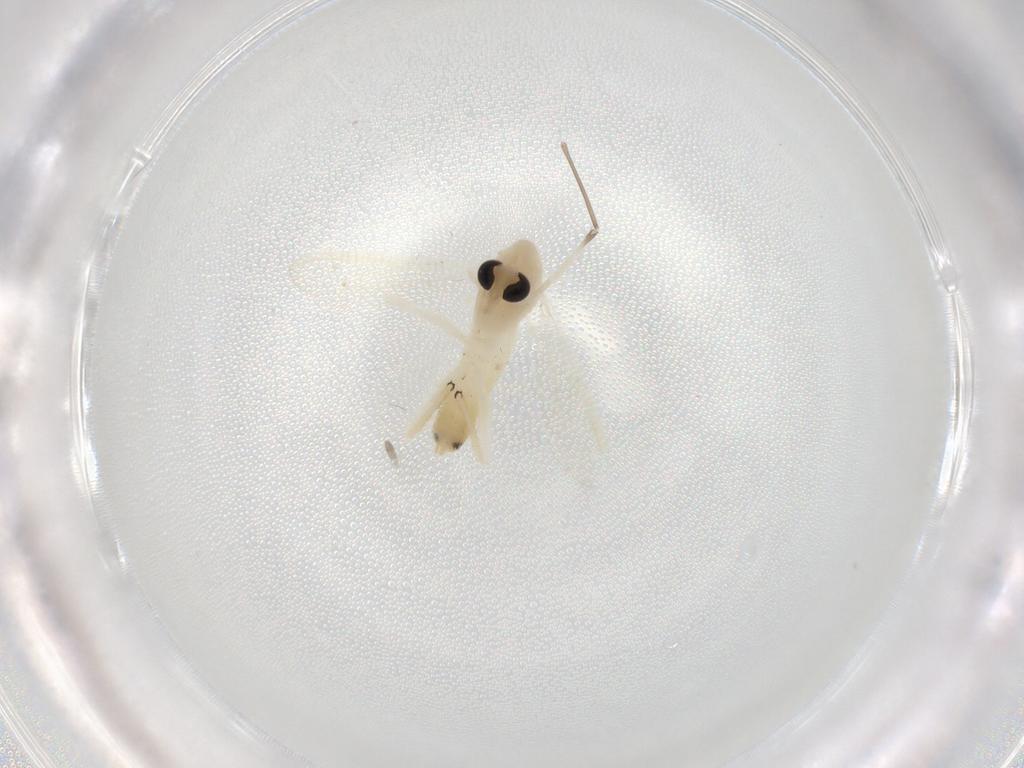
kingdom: Animalia
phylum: Arthropoda
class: Insecta
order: Diptera
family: Chironomidae
